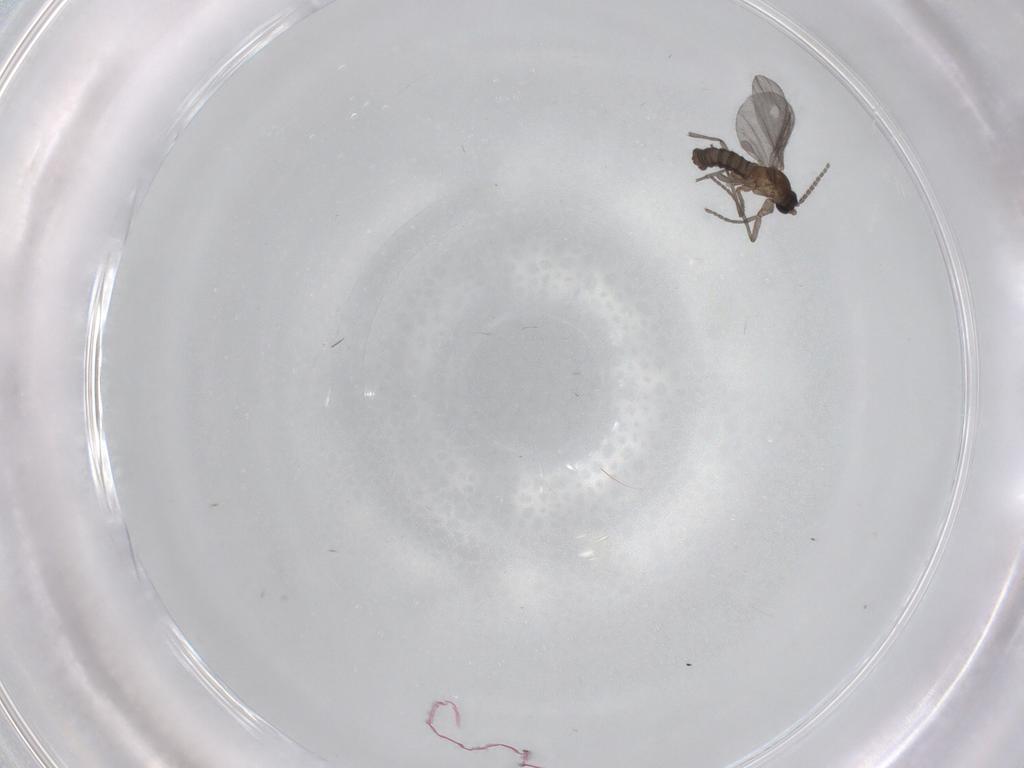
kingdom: Animalia
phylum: Arthropoda
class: Insecta
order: Diptera
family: Sciaridae
